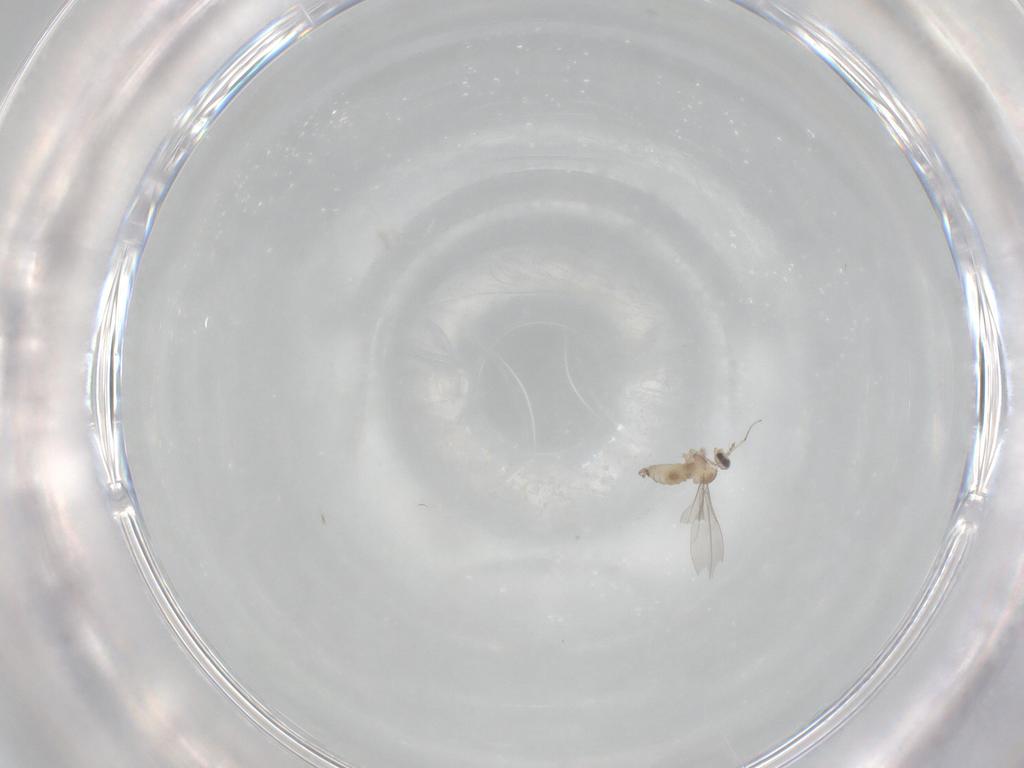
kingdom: Animalia
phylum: Arthropoda
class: Insecta
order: Diptera
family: Cecidomyiidae
